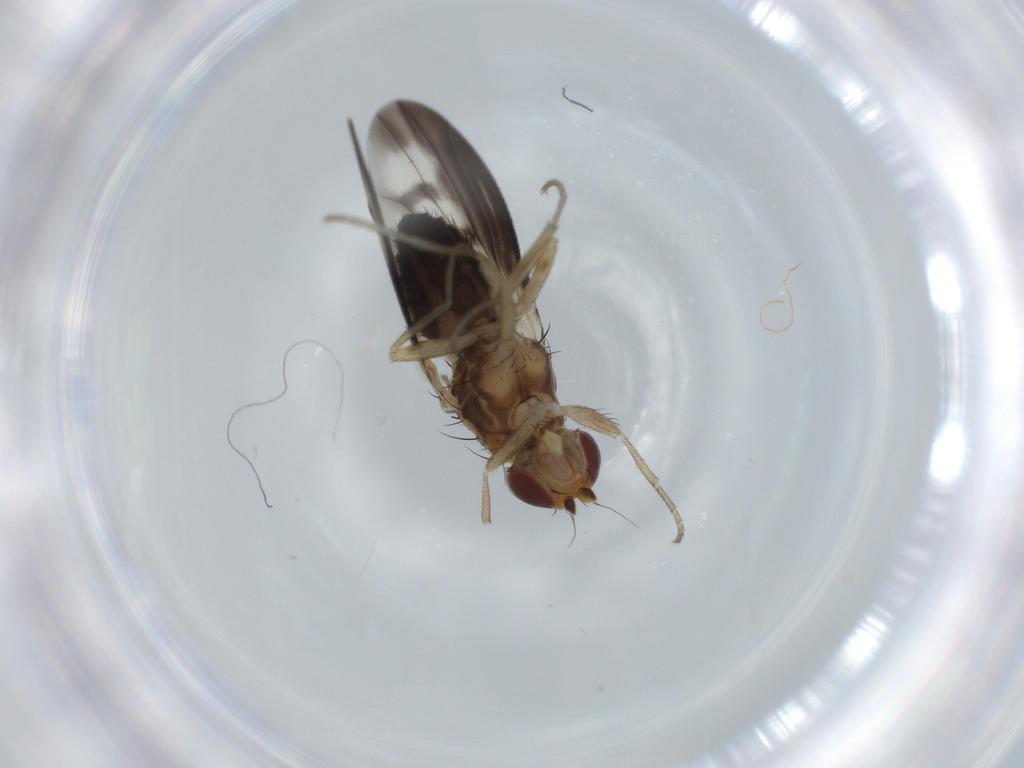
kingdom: Animalia
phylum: Arthropoda
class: Insecta
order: Diptera
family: Heleomyzidae
